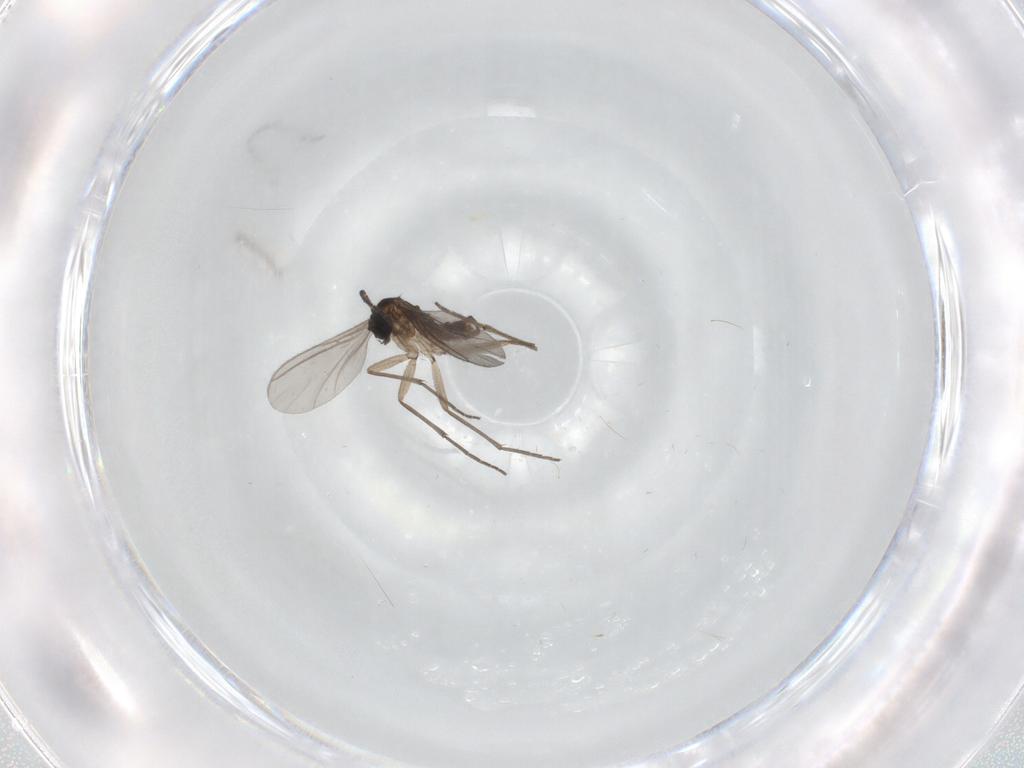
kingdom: Animalia
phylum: Arthropoda
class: Insecta
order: Diptera
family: Sciaridae
